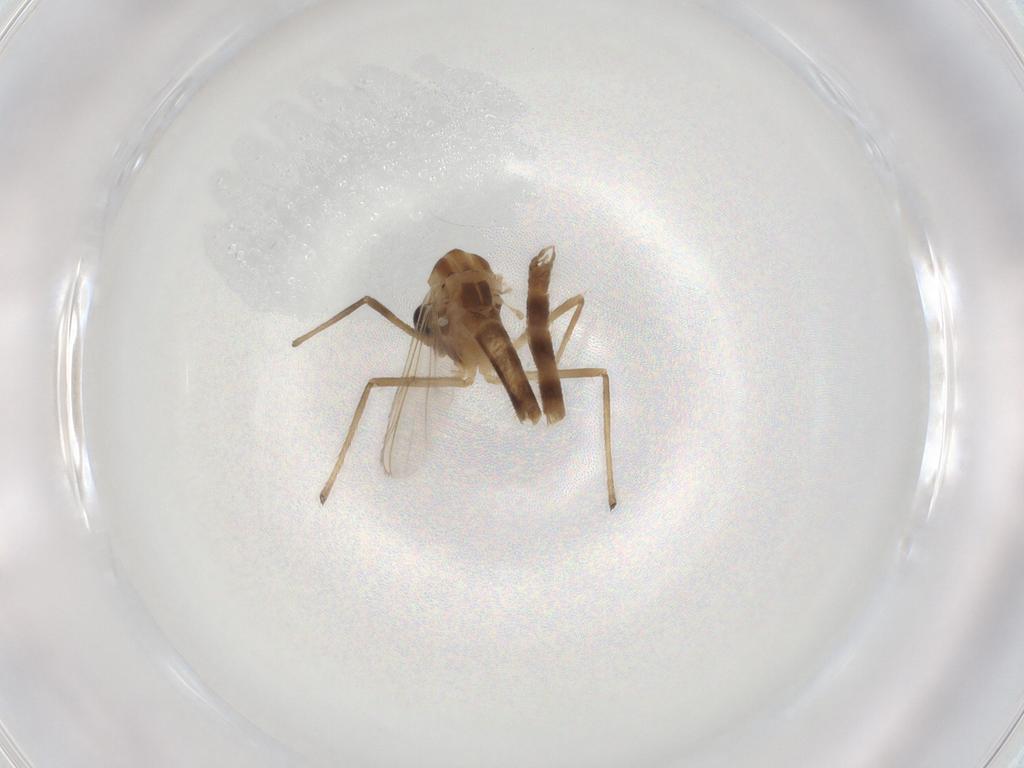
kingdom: Animalia
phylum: Arthropoda
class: Insecta
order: Diptera
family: Chironomidae
